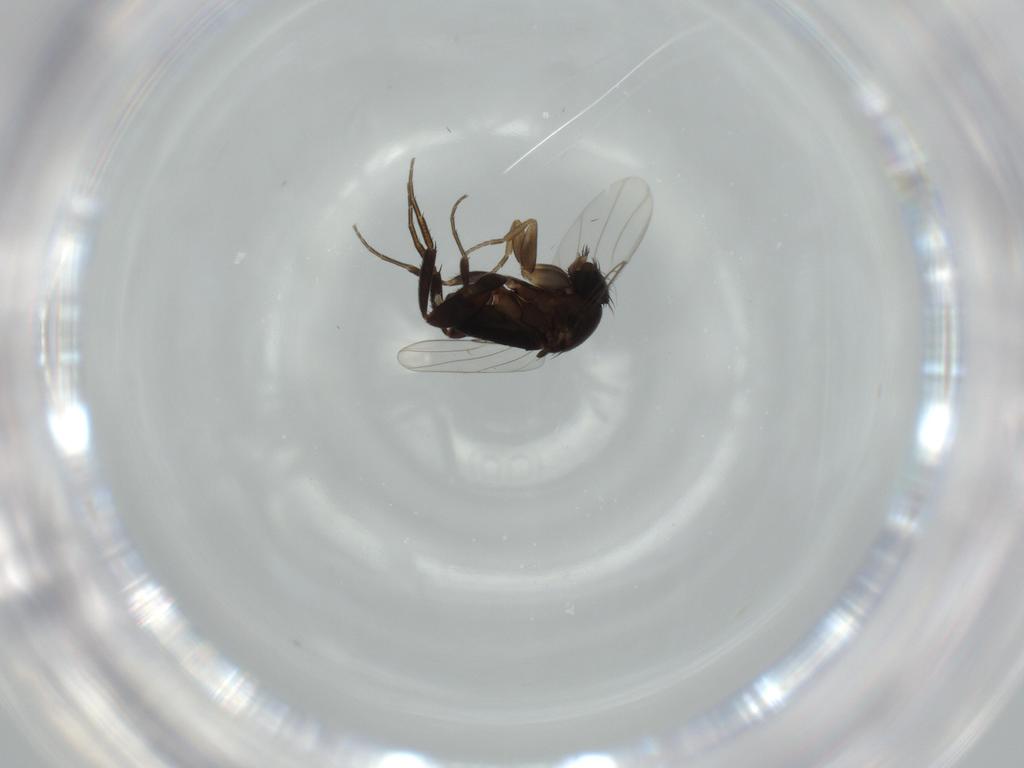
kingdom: Animalia
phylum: Arthropoda
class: Insecta
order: Diptera
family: Phoridae
